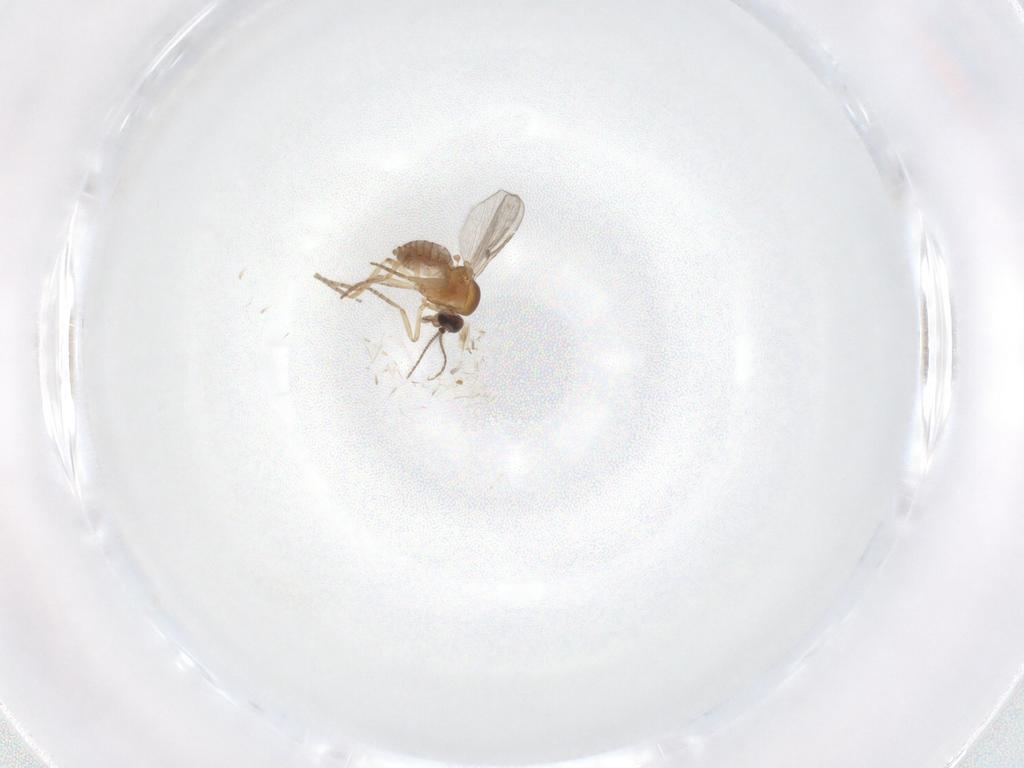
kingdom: Animalia
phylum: Arthropoda
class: Insecta
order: Diptera
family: Psychodidae
